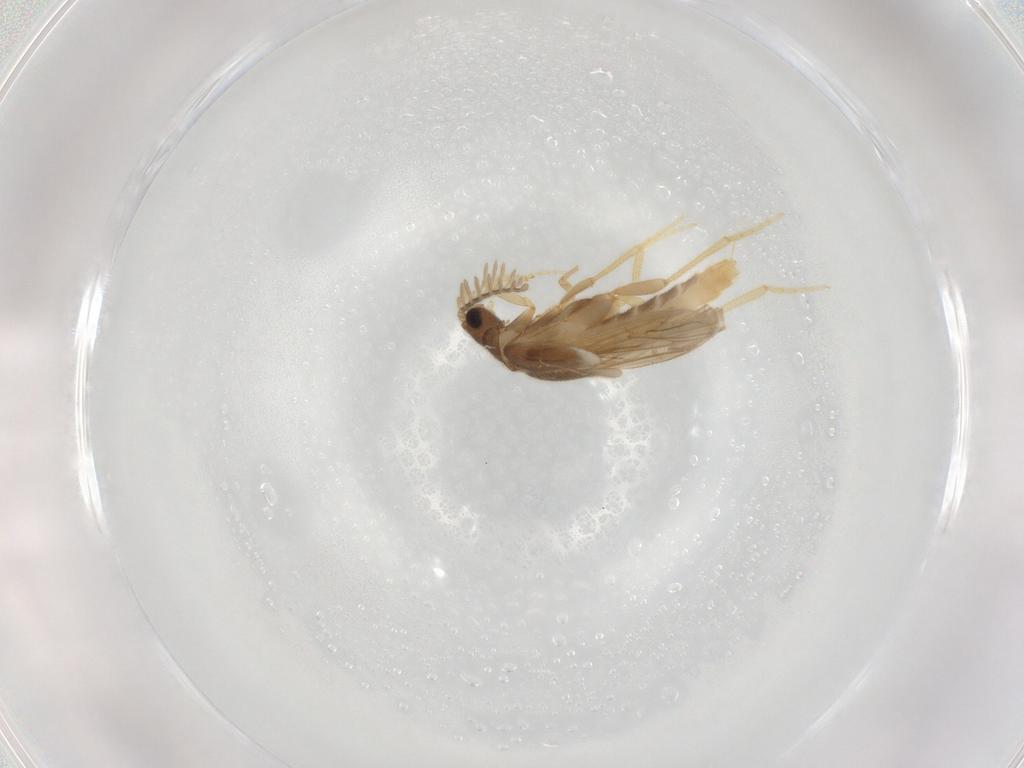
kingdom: Animalia
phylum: Arthropoda
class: Insecta
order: Coleoptera
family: Phengodidae
